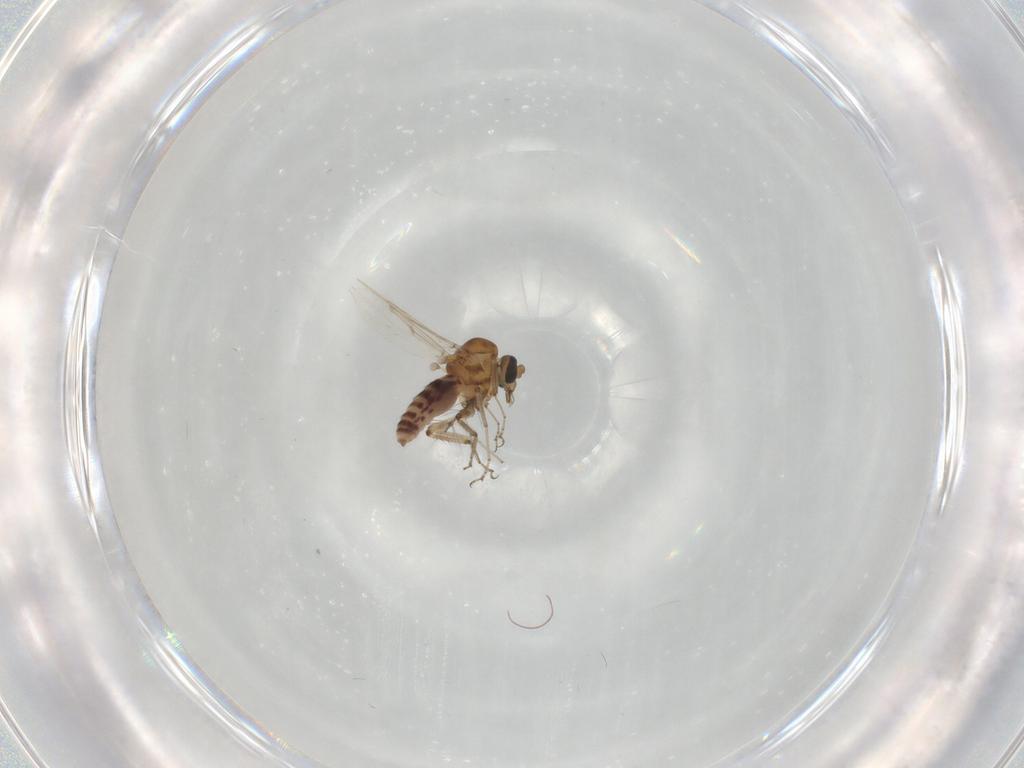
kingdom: Animalia
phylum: Arthropoda
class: Insecta
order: Diptera
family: Ceratopogonidae
